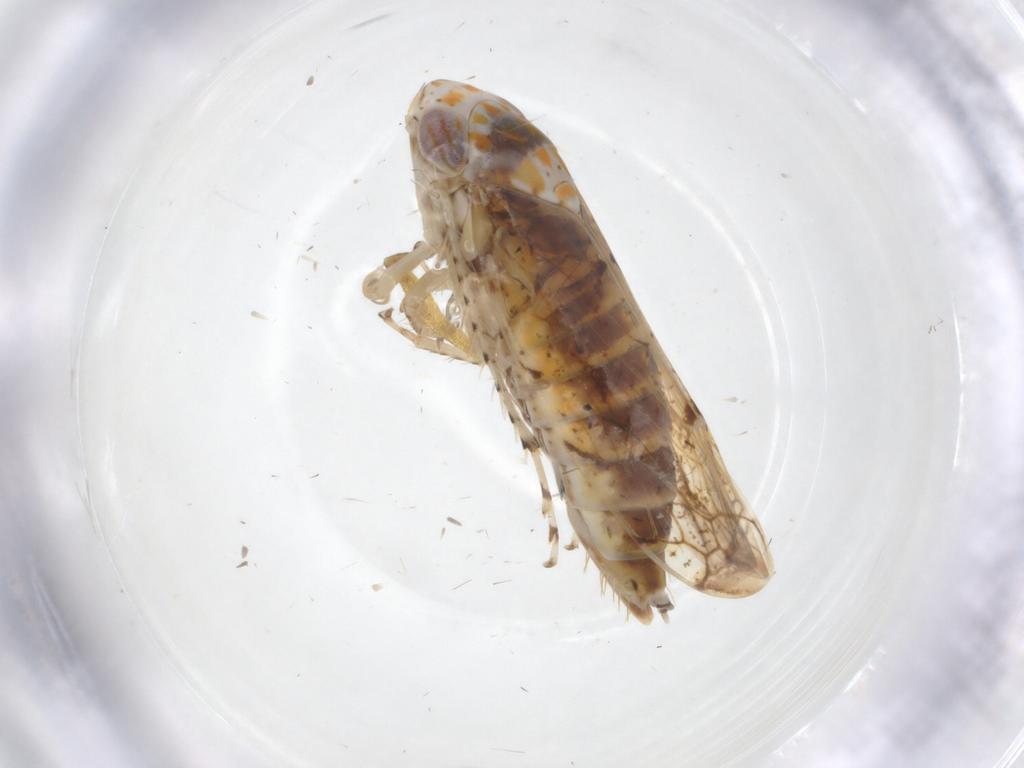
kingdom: Animalia
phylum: Arthropoda
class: Insecta
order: Hemiptera
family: Cicadellidae
